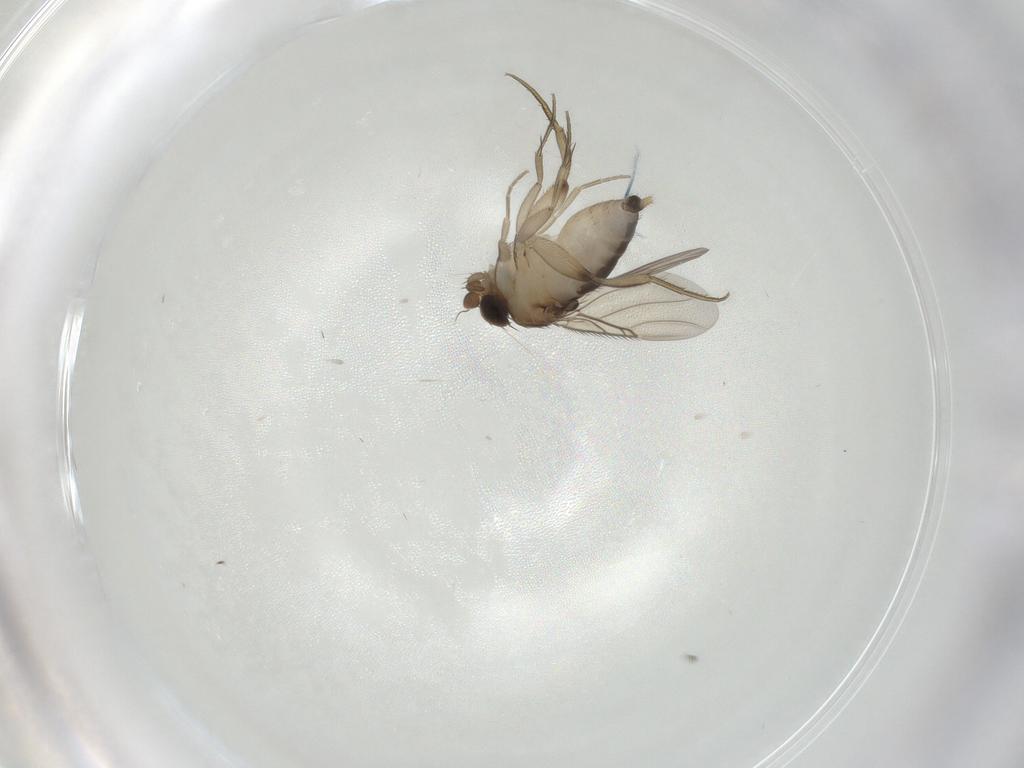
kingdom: Animalia
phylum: Arthropoda
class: Insecta
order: Diptera
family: Phoridae
